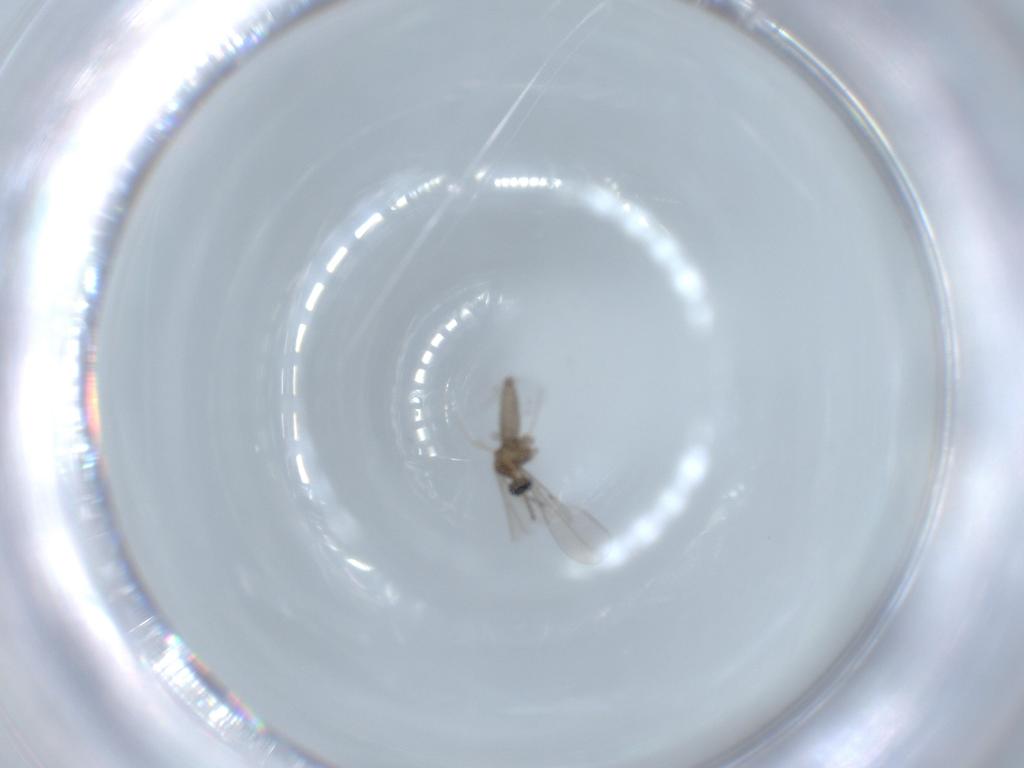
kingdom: Animalia
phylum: Arthropoda
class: Insecta
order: Diptera
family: Cecidomyiidae
